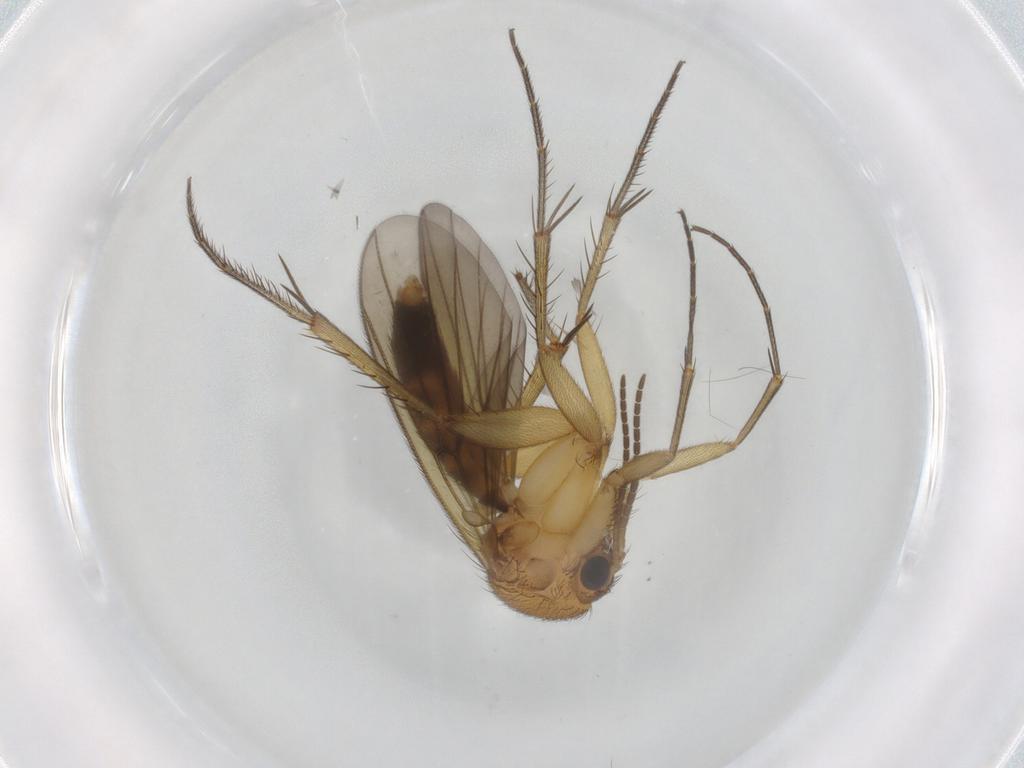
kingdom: Animalia
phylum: Arthropoda
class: Insecta
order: Diptera
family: Mycetophilidae
